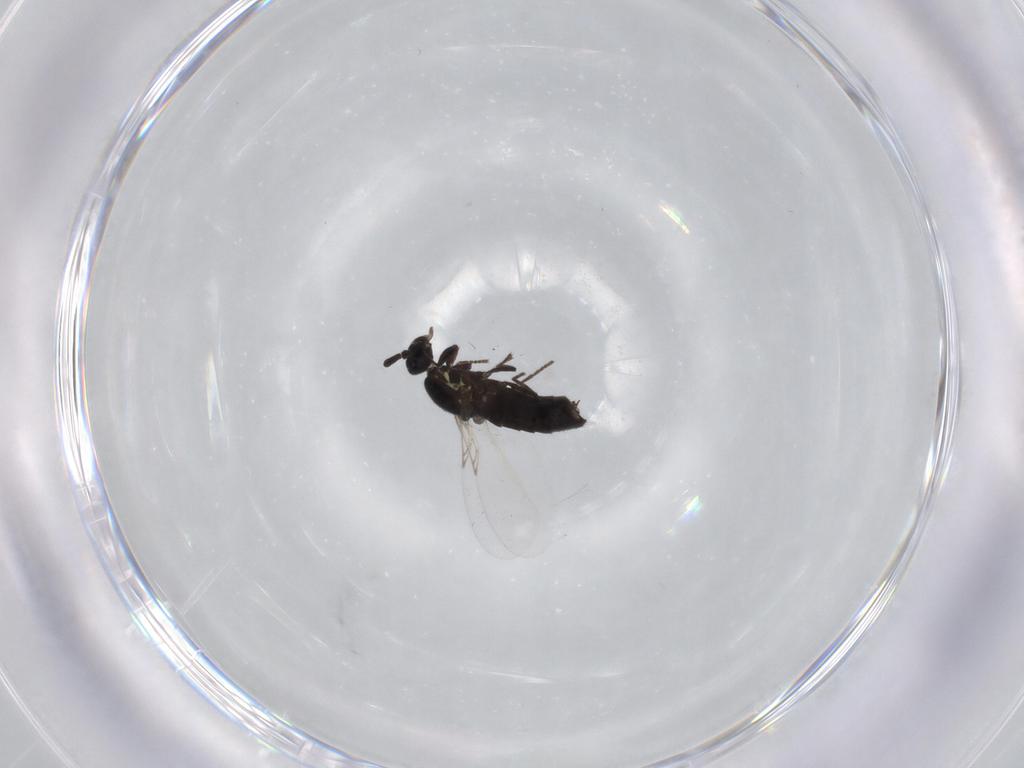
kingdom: Animalia
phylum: Arthropoda
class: Insecta
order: Diptera
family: Scatopsidae
